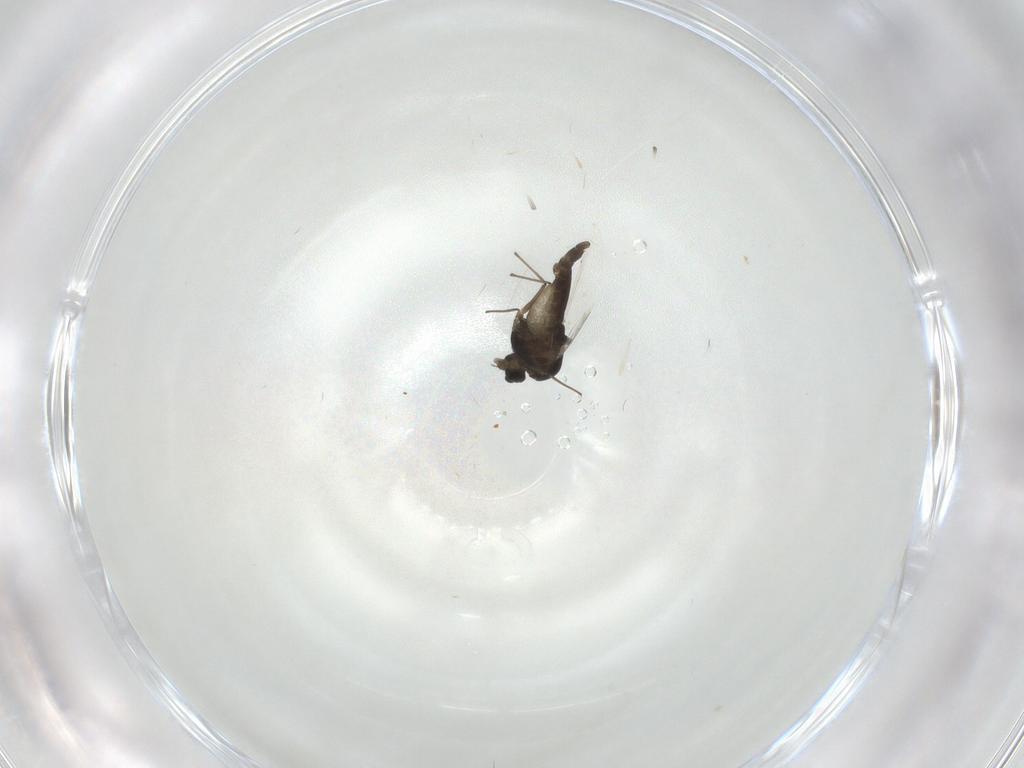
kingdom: Animalia
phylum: Arthropoda
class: Insecta
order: Diptera
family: Chironomidae
